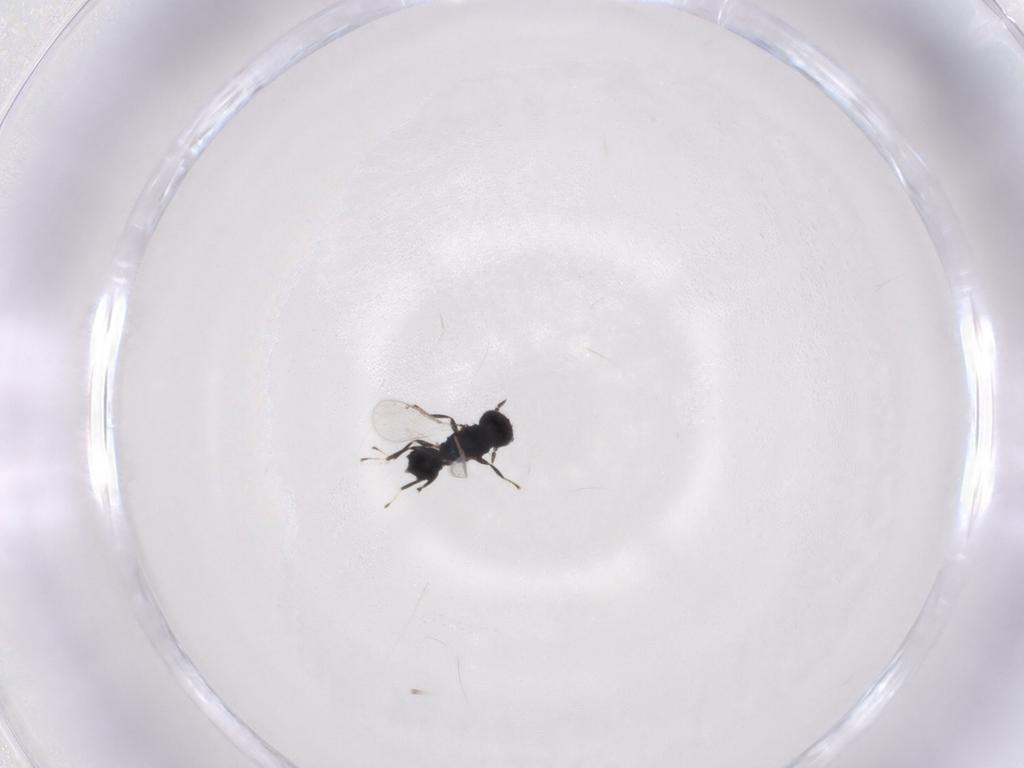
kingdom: Animalia
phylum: Arthropoda
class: Insecta
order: Hymenoptera
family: Eulophidae
